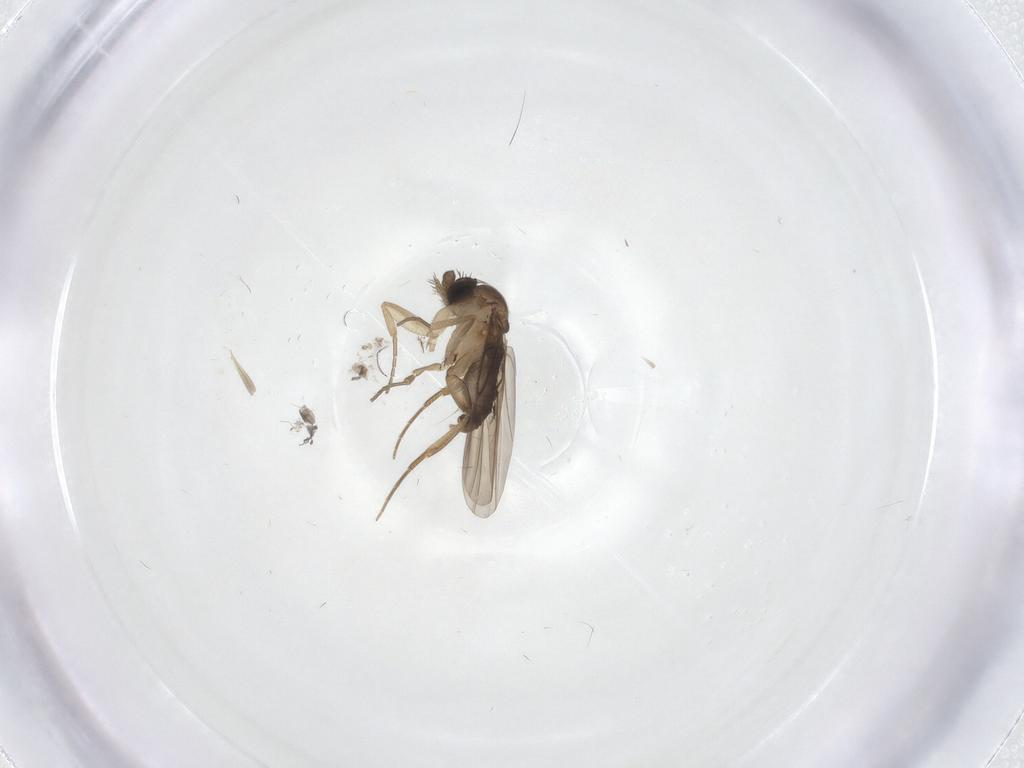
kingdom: Animalia
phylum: Arthropoda
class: Insecta
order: Diptera
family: Cecidomyiidae
